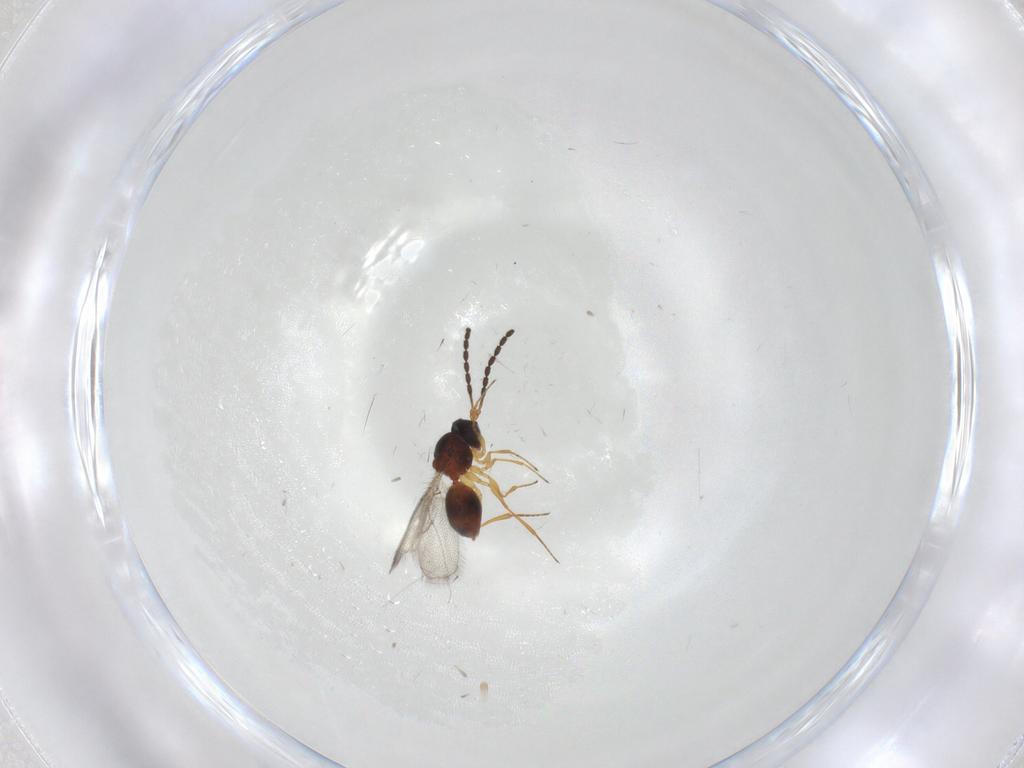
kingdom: Animalia
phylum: Arthropoda
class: Insecta
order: Hymenoptera
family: Figitidae
